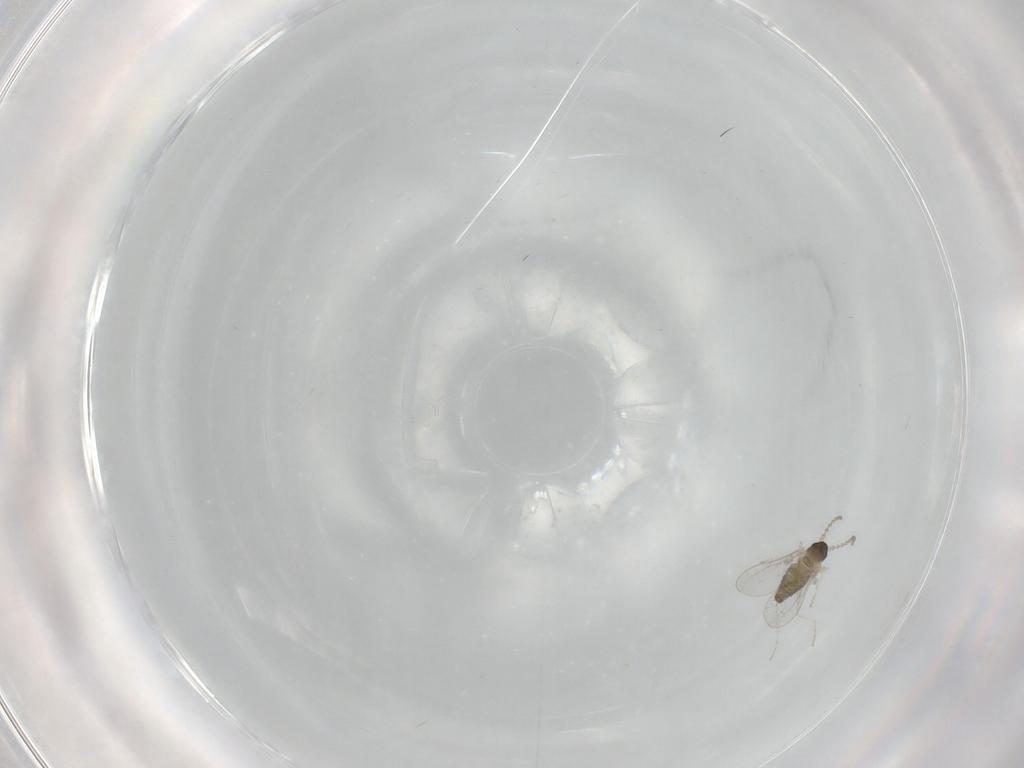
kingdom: Animalia
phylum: Arthropoda
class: Insecta
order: Diptera
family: Cecidomyiidae
